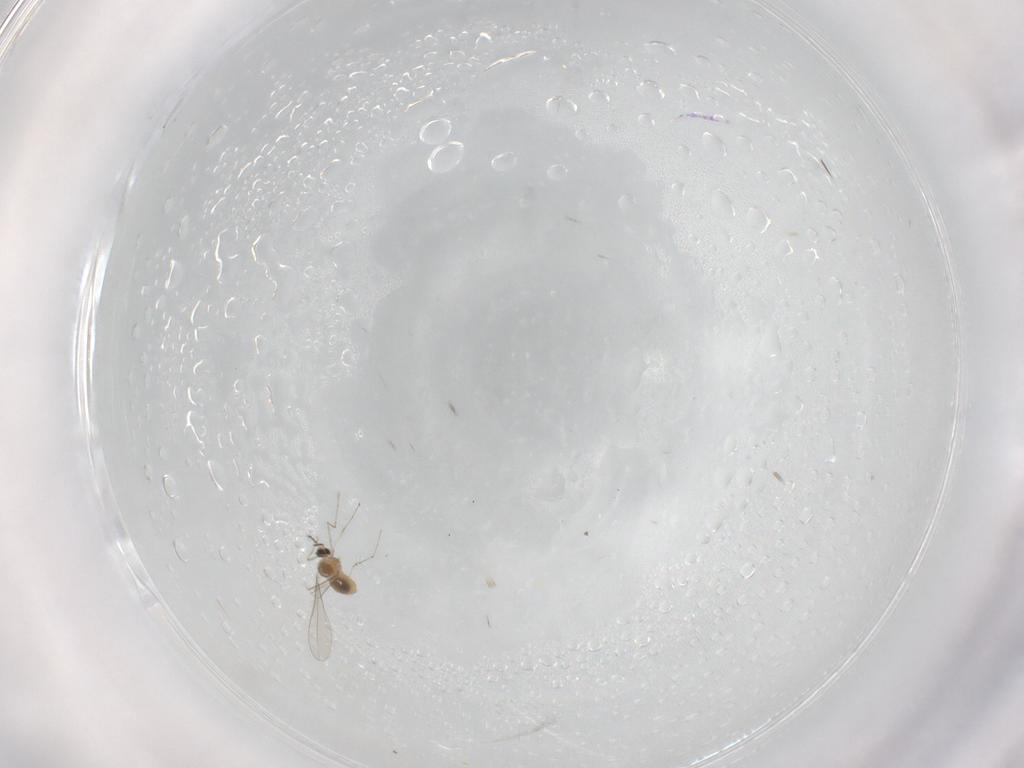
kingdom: Animalia
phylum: Arthropoda
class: Insecta
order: Diptera
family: Cecidomyiidae
